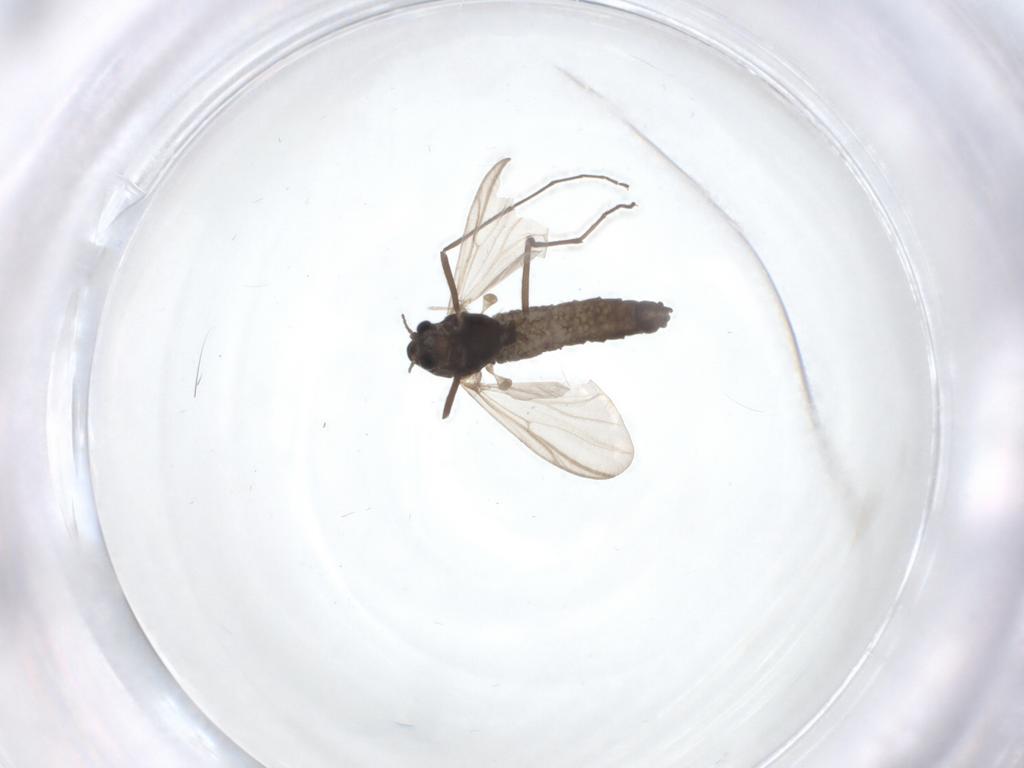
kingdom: Animalia
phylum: Arthropoda
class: Insecta
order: Diptera
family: Chironomidae
